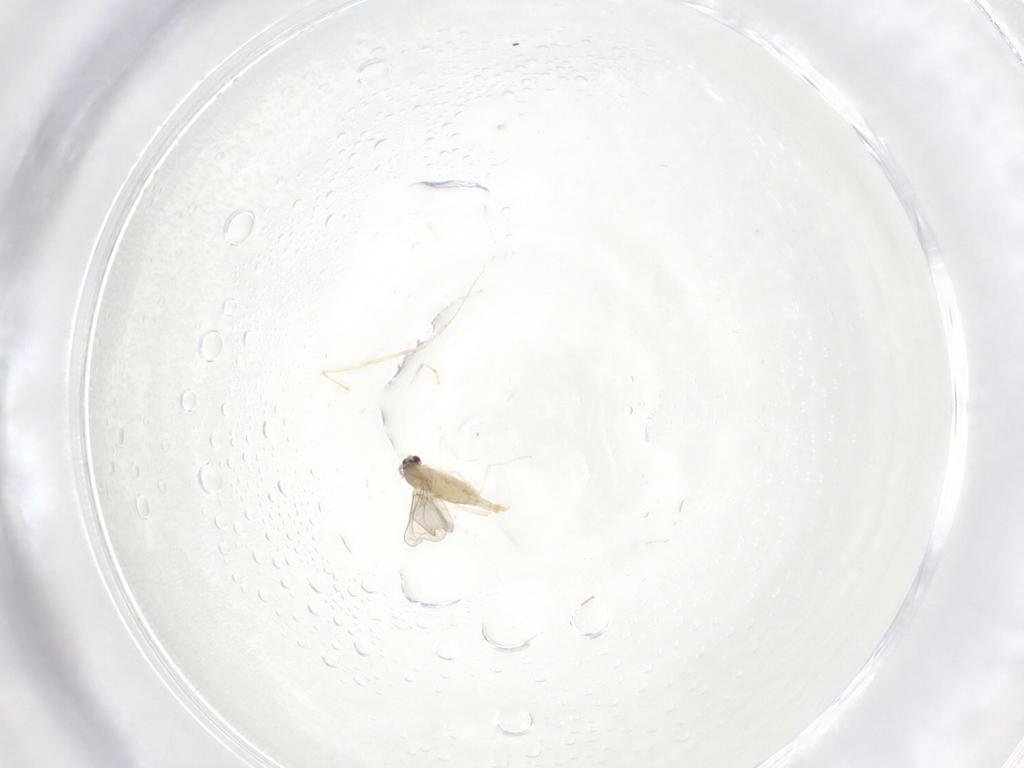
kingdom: Animalia
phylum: Arthropoda
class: Insecta
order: Diptera
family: Cecidomyiidae
